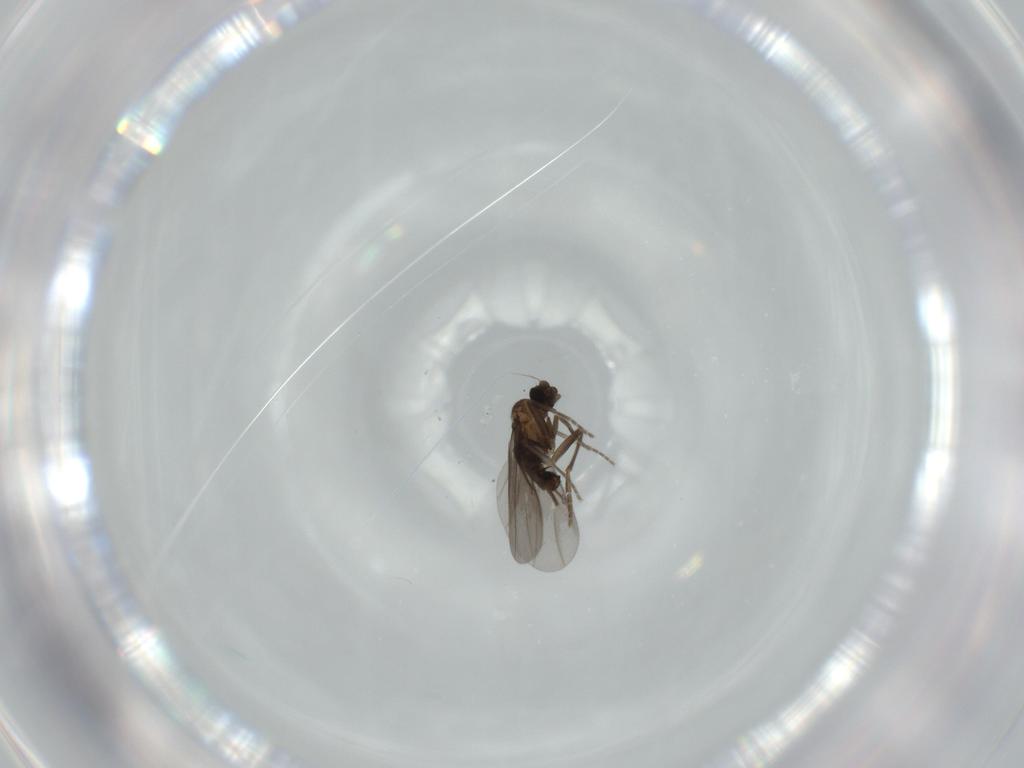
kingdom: Animalia
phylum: Arthropoda
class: Insecta
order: Diptera
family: Phoridae
